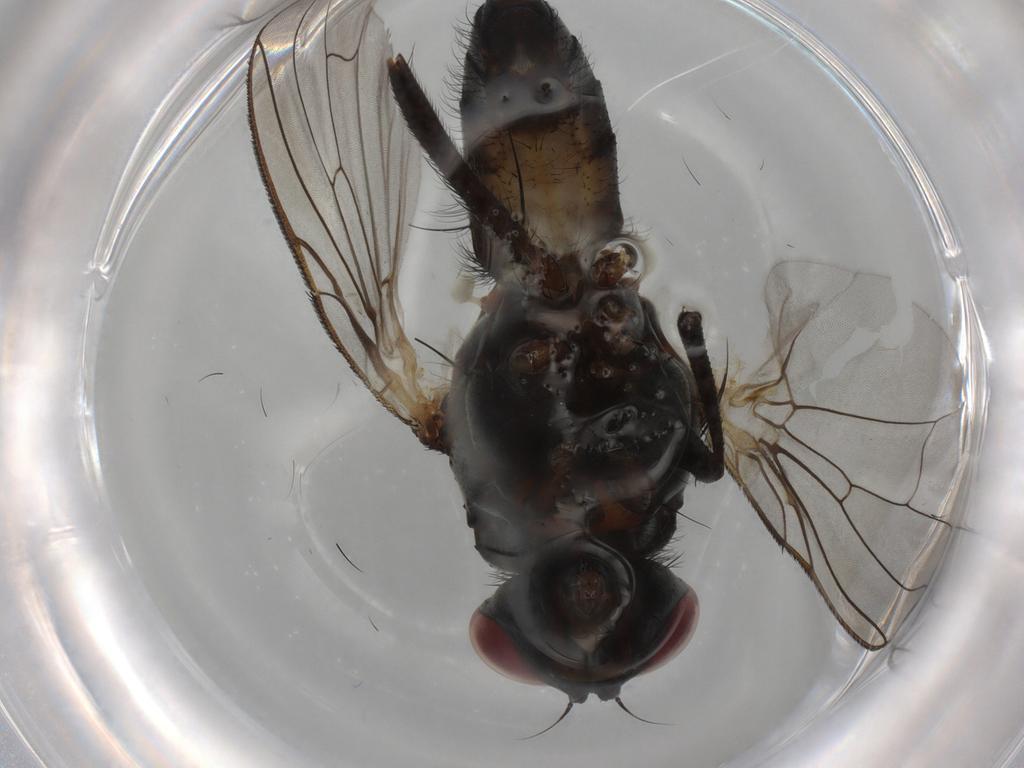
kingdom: Animalia
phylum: Arthropoda
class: Insecta
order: Diptera
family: Anthomyiidae
